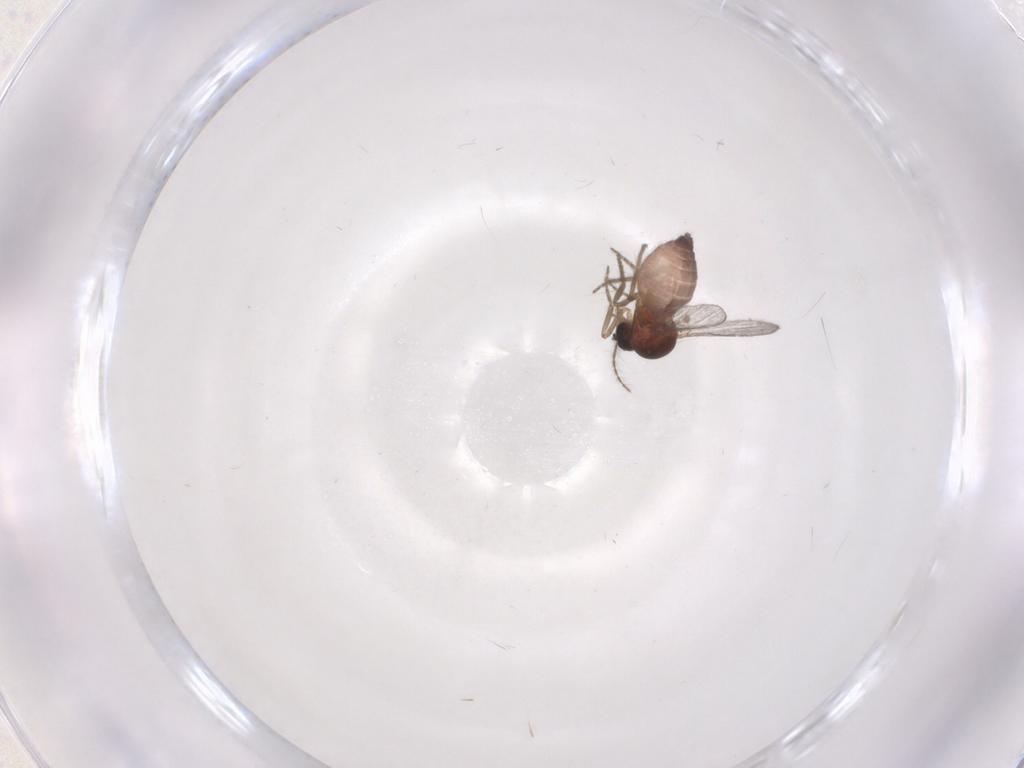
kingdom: Animalia
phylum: Arthropoda
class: Insecta
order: Diptera
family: Ceratopogonidae
